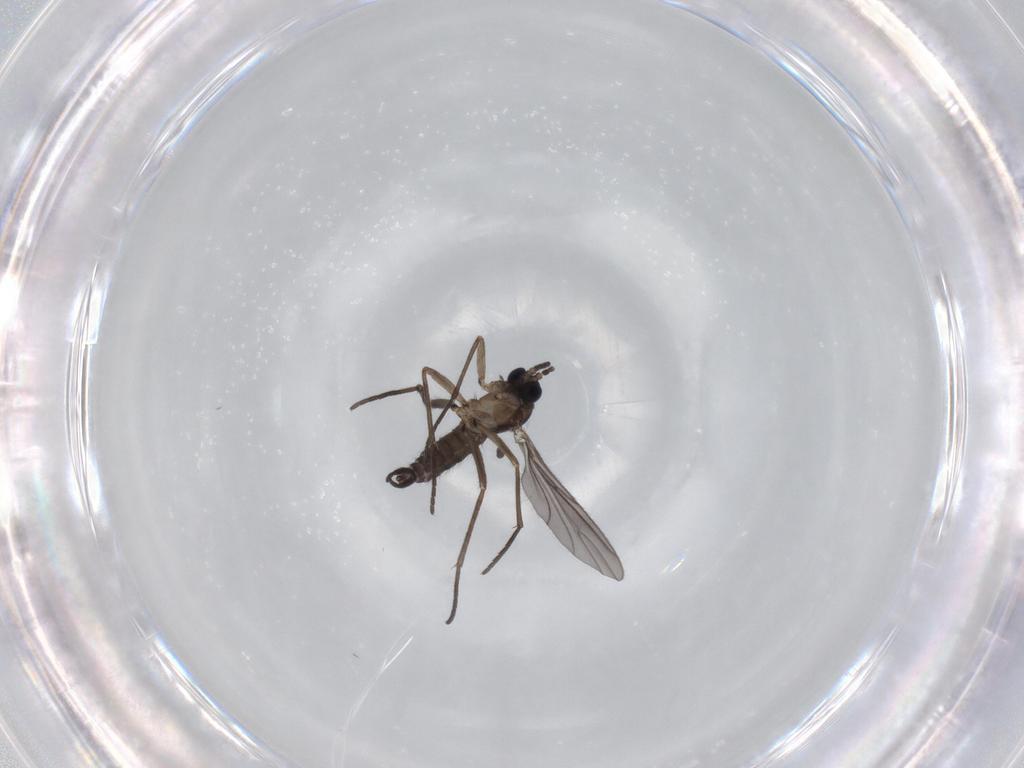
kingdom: Animalia
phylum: Arthropoda
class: Insecta
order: Diptera
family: Sciaridae
